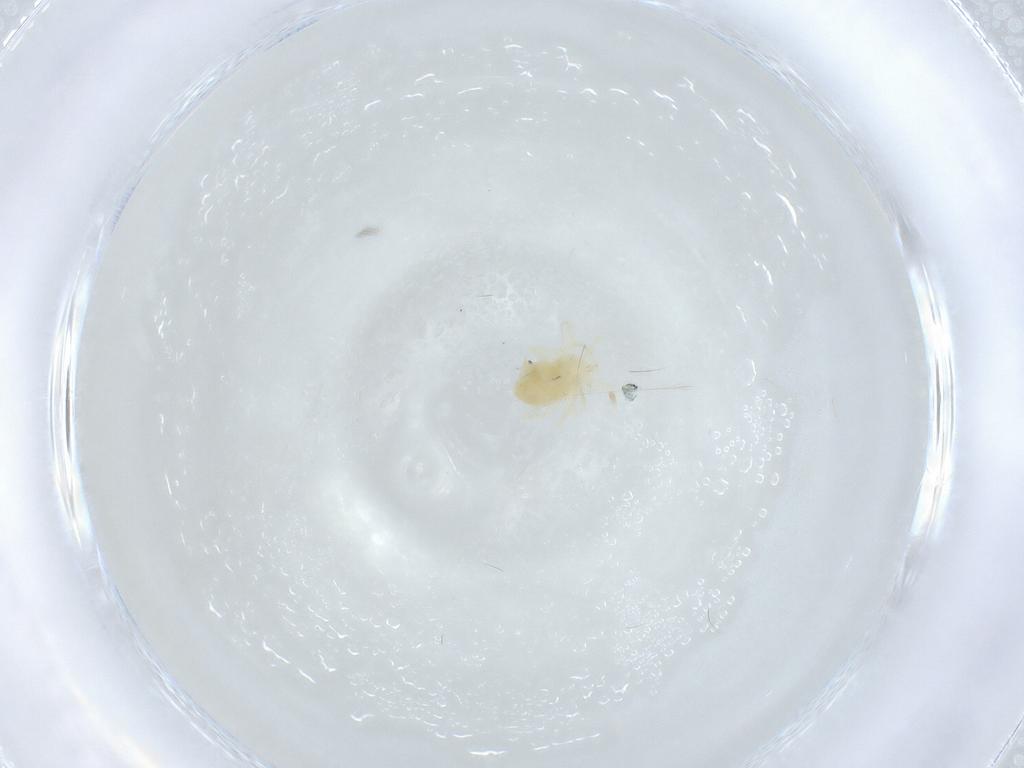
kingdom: Animalia
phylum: Arthropoda
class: Arachnida
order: Trombidiformes
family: Anystidae
